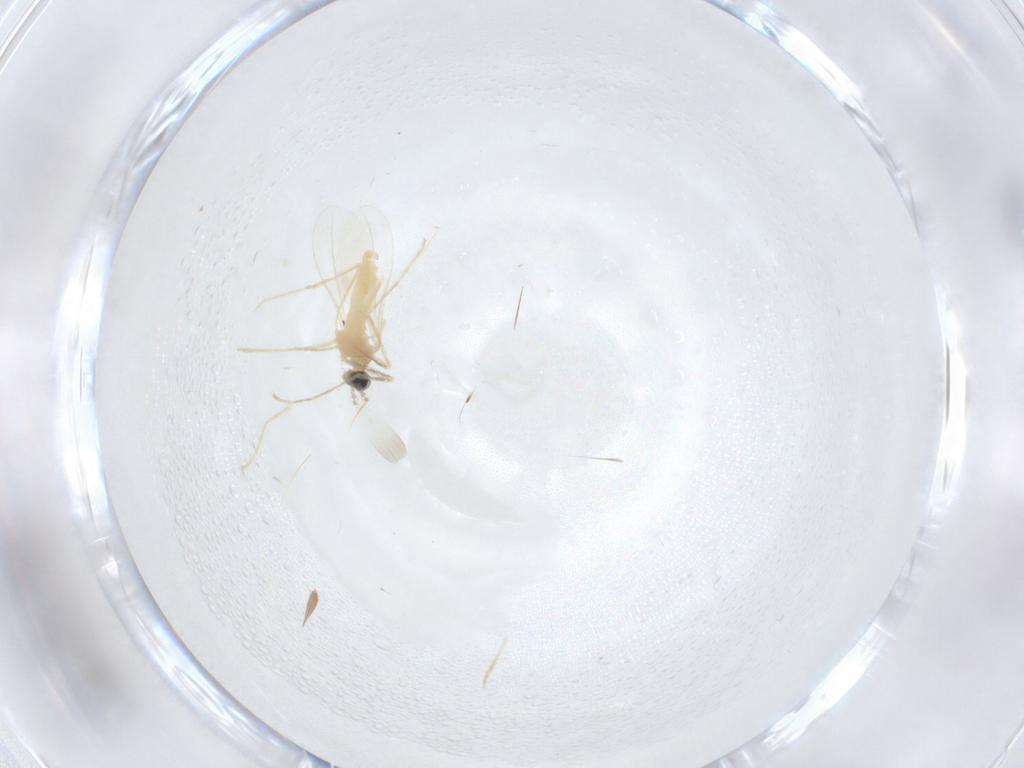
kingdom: Animalia
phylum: Arthropoda
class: Insecta
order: Diptera
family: Cecidomyiidae
